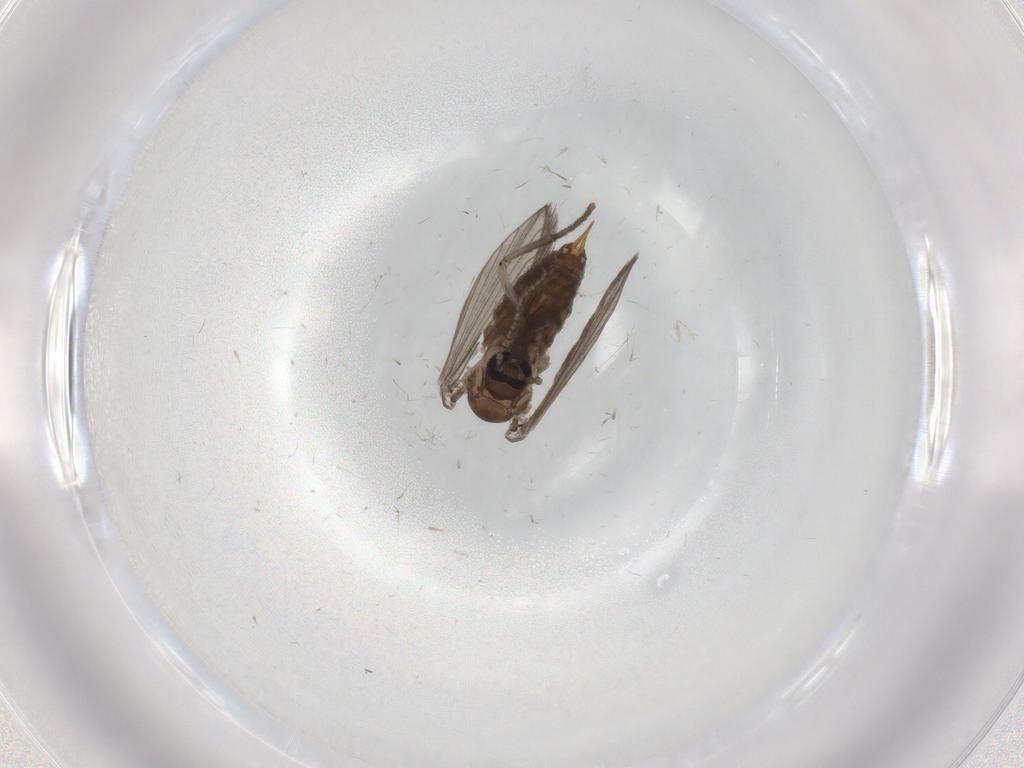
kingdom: Animalia
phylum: Arthropoda
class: Insecta
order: Diptera
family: Psychodidae
